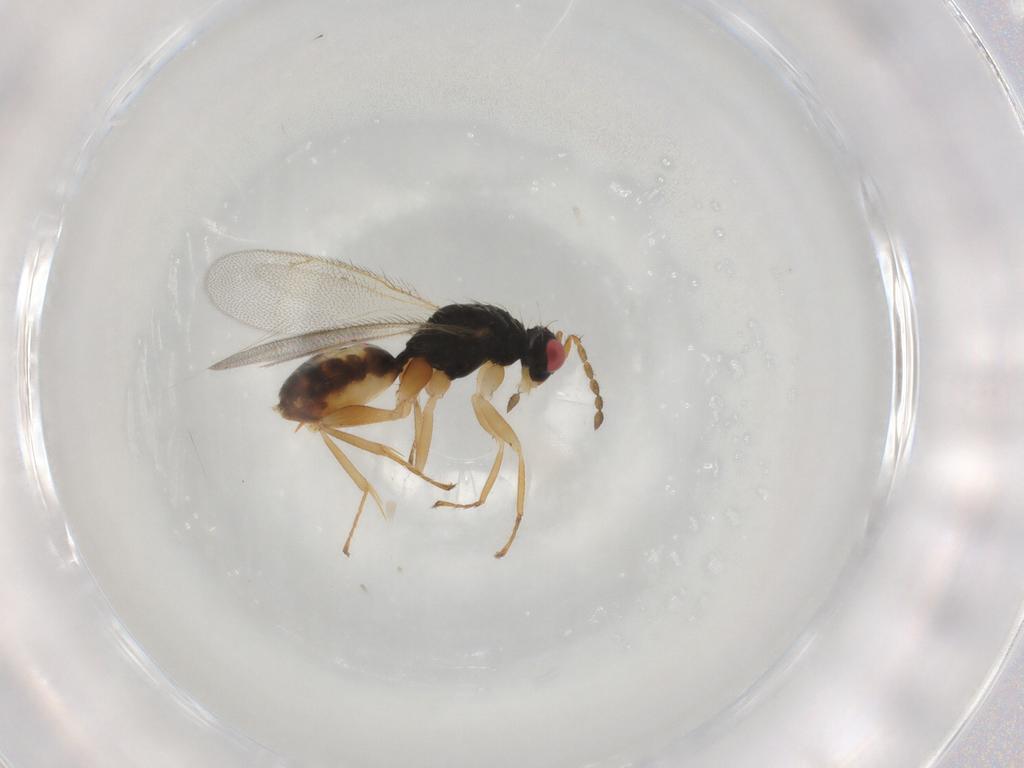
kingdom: Animalia
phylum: Arthropoda
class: Insecta
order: Hymenoptera
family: Eulophidae
